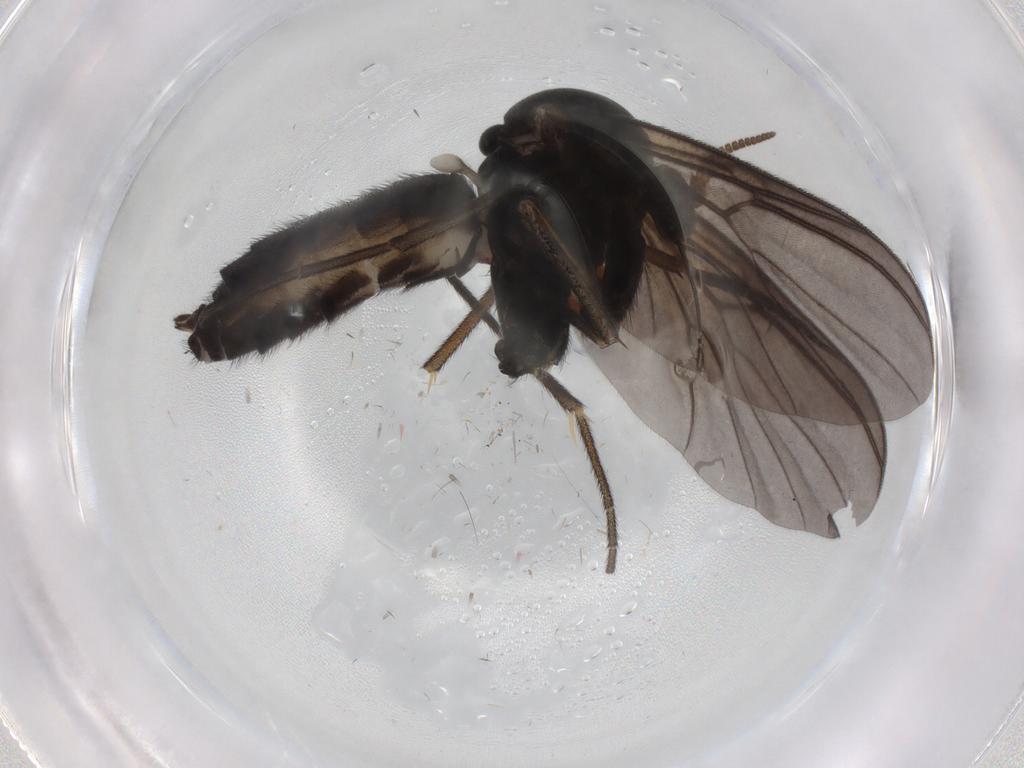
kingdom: Animalia
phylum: Arthropoda
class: Insecta
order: Diptera
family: Mycetophilidae
